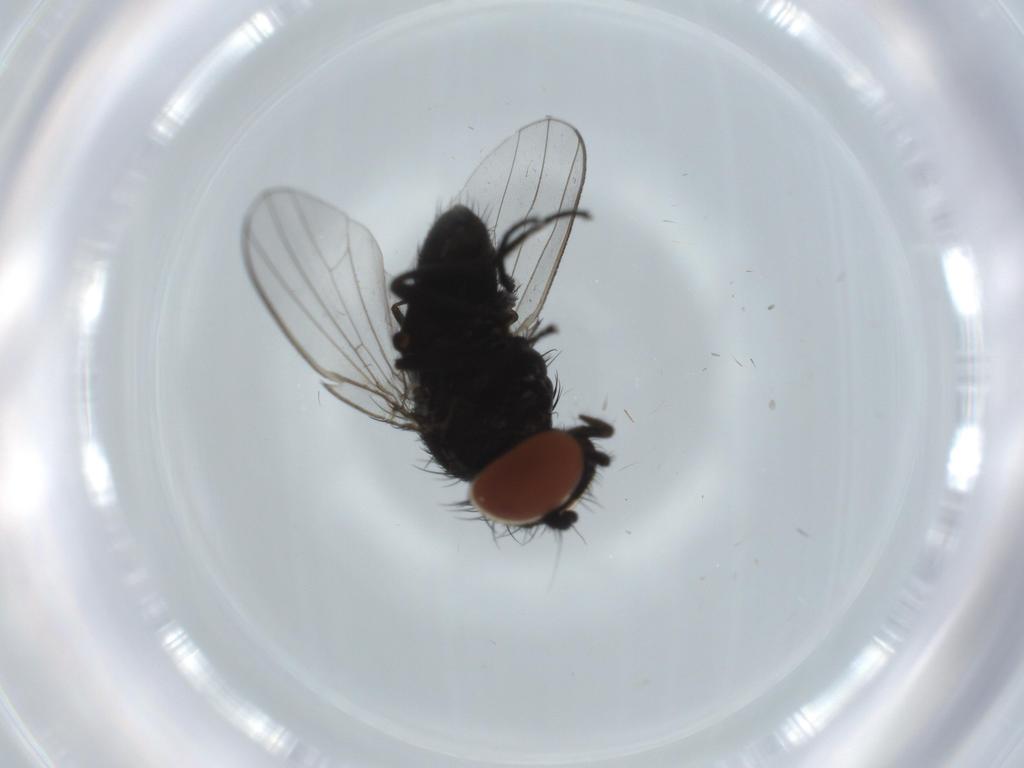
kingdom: Animalia
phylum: Arthropoda
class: Insecta
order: Diptera
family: Milichiidae
